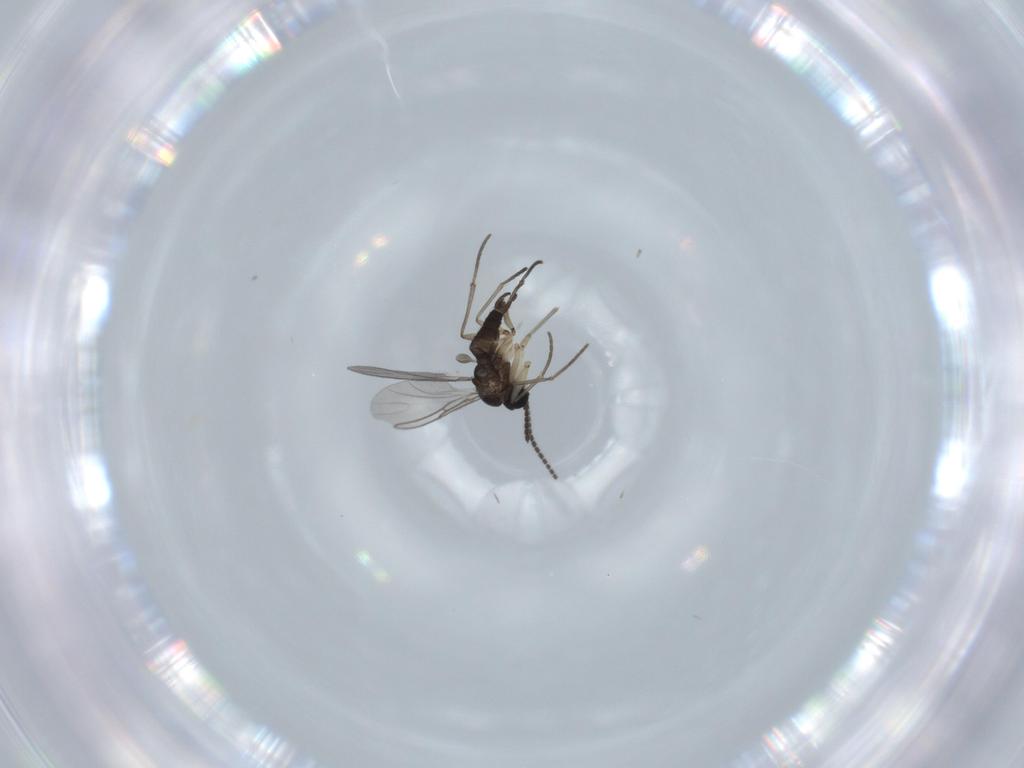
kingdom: Animalia
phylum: Arthropoda
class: Insecta
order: Diptera
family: Sciaridae
